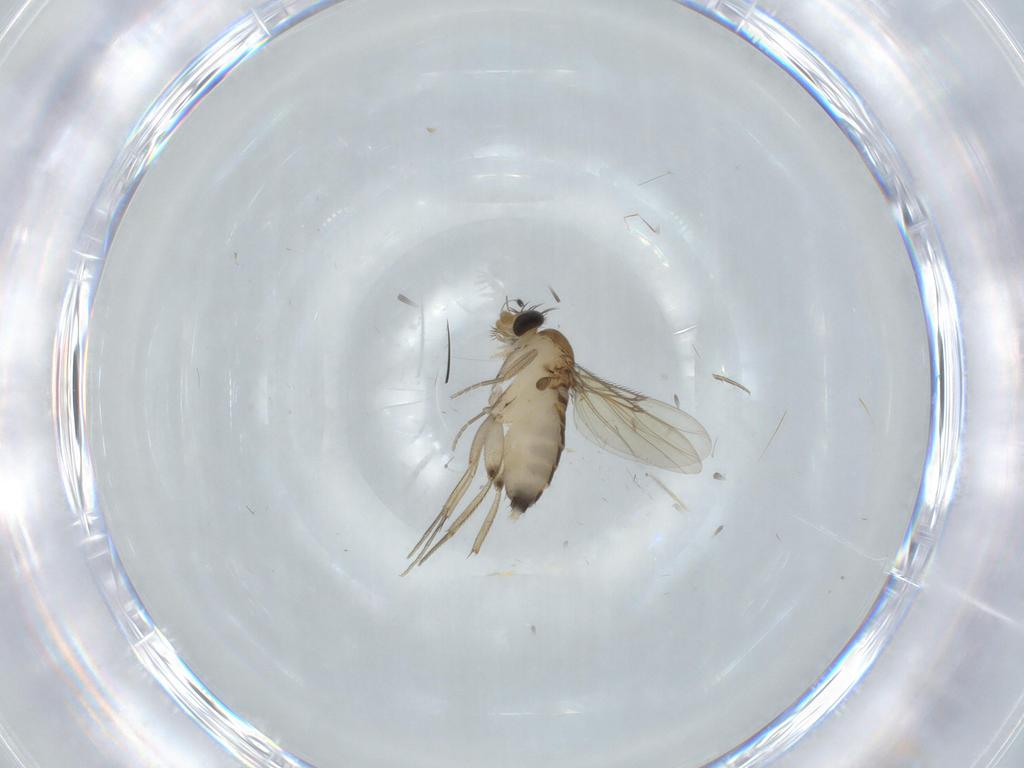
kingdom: Animalia
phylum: Arthropoda
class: Insecta
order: Diptera
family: Phoridae
